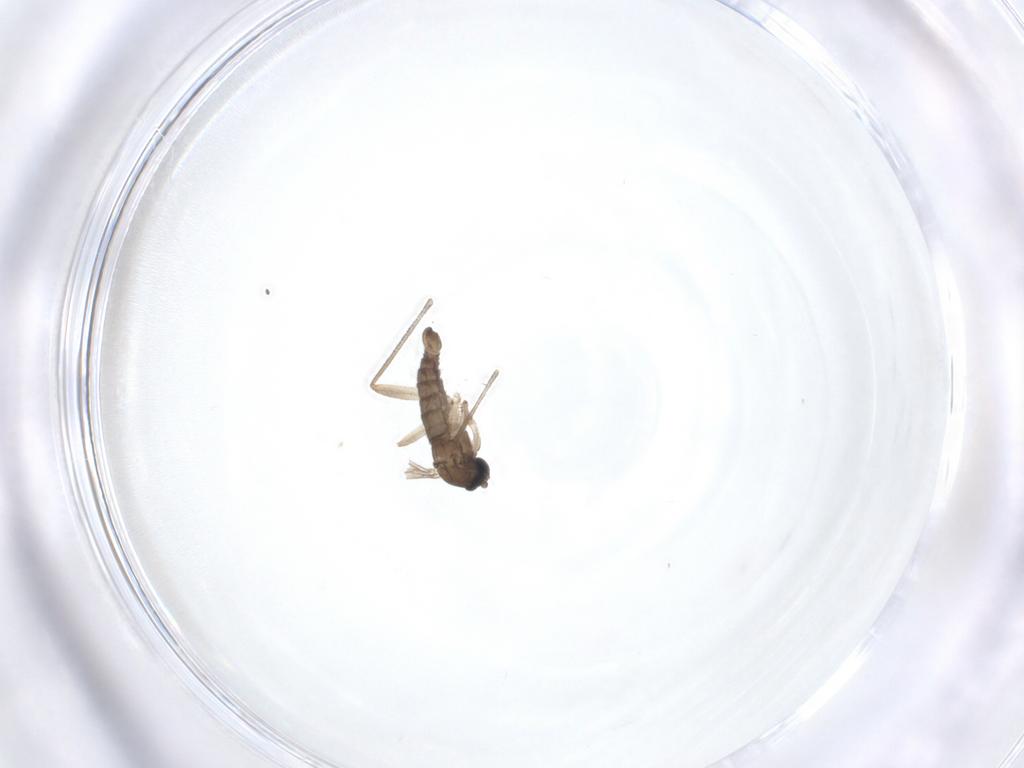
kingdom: Animalia
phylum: Arthropoda
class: Insecta
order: Diptera
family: Sciaridae
